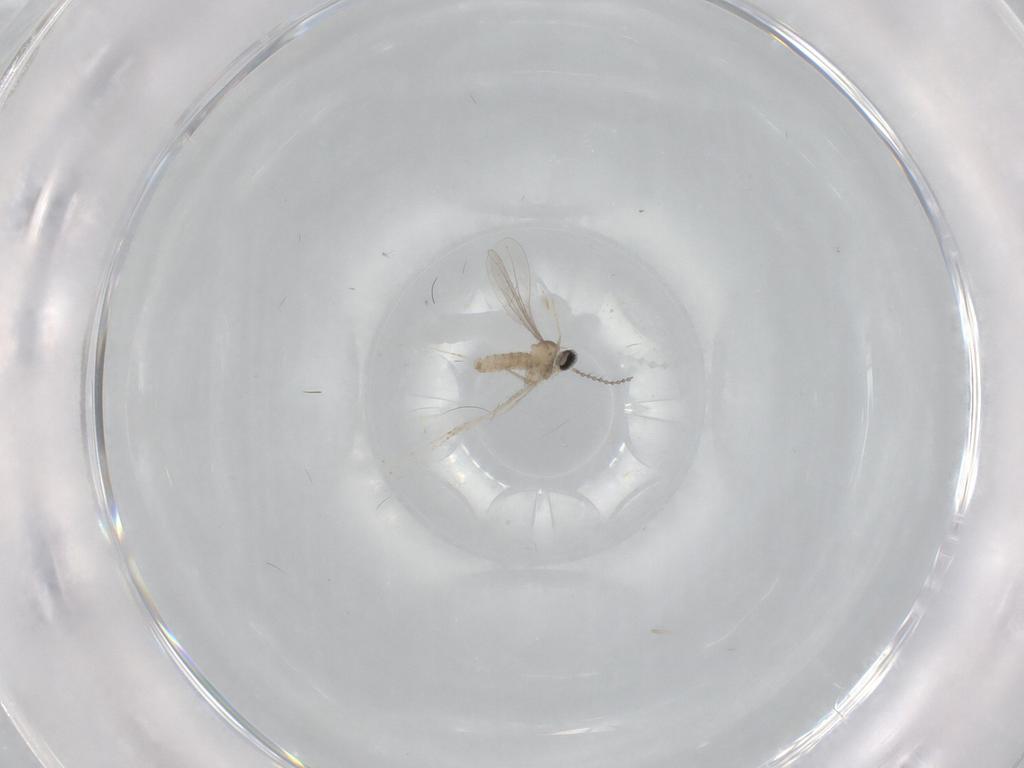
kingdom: Animalia
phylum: Arthropoda
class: Insecta
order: Diptera
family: Psychodidae
